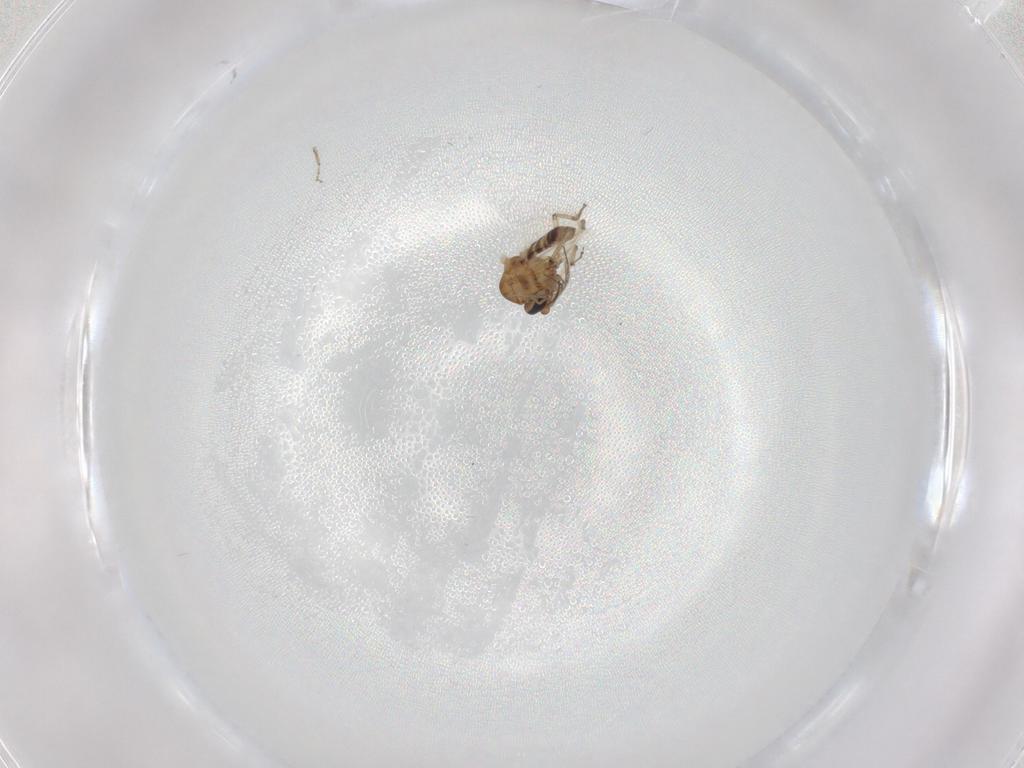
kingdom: Animalia
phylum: Arthropoda
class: Insecta
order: Diptera
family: Ceratopogonidae
